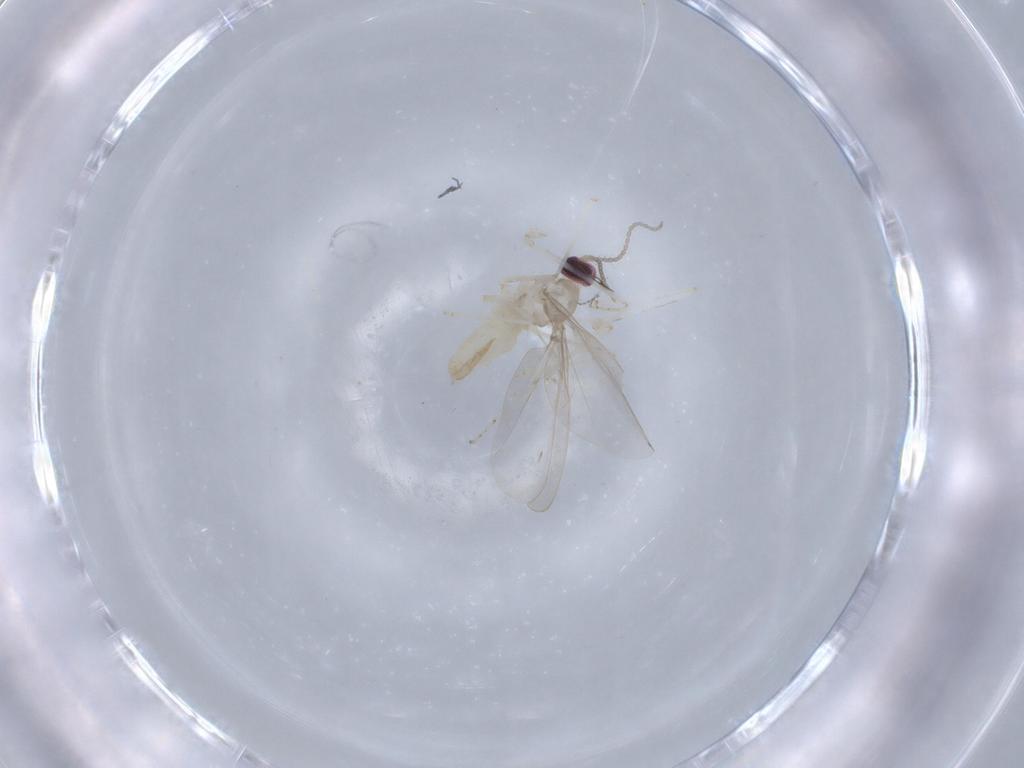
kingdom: Animalia
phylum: Arthropoda
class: Insecta
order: Diptera
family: Cecidomyiidae
